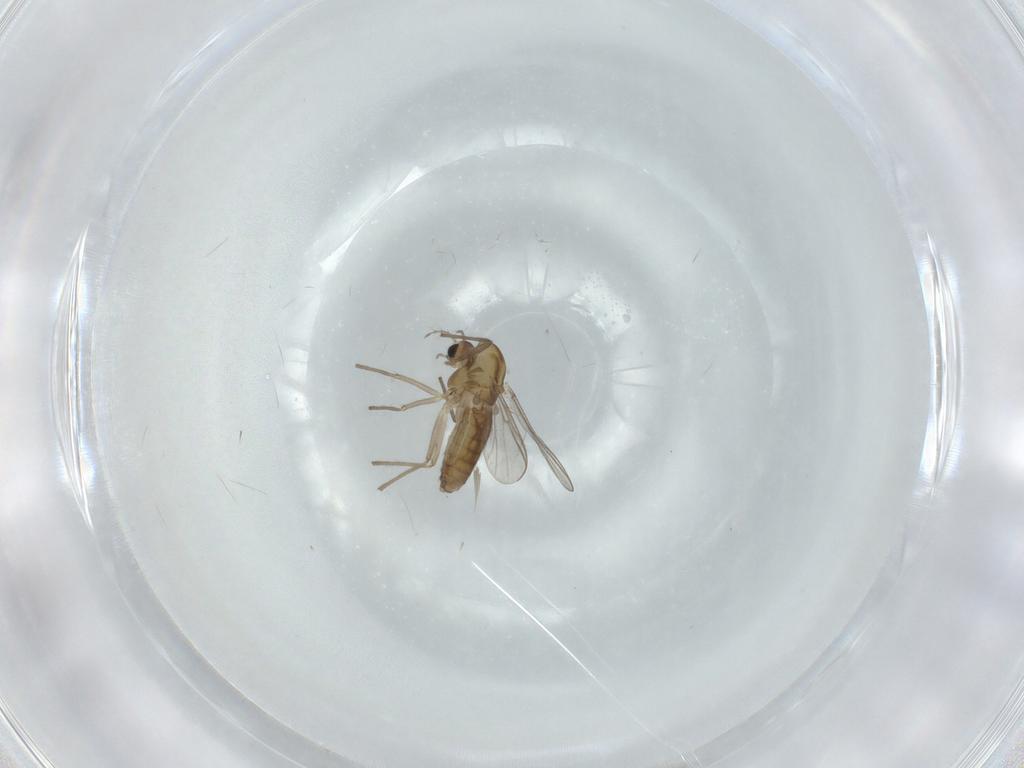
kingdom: Animalia
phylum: Arthropoda
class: Insecta
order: Diptera
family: Chironomidae
